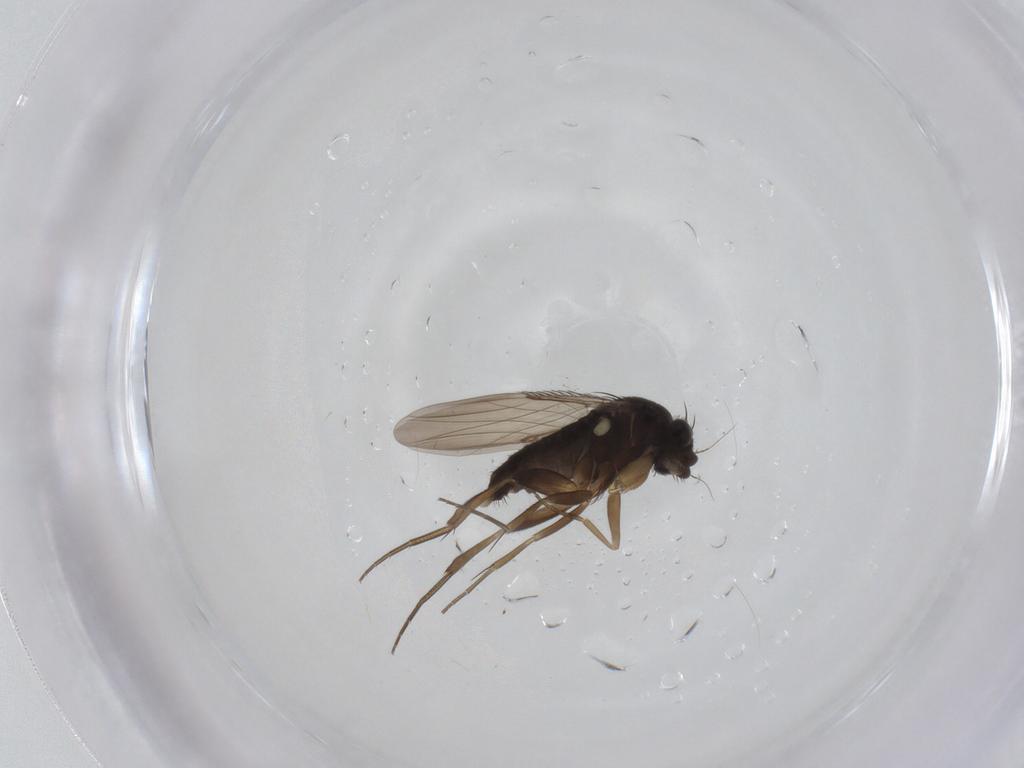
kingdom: Animalia
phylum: Arthropoda
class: Insecta
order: Diptera
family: Phoridae
